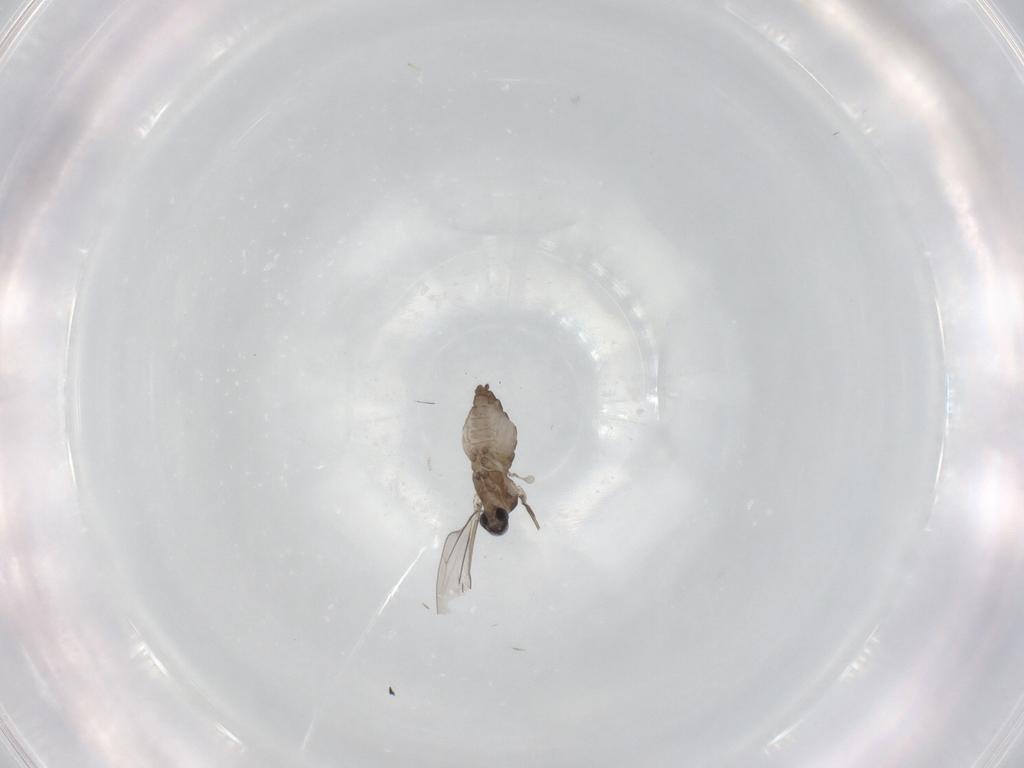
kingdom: Animalia
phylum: Arthropoda
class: Insecta
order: Diptera
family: Cecidomyiidae
